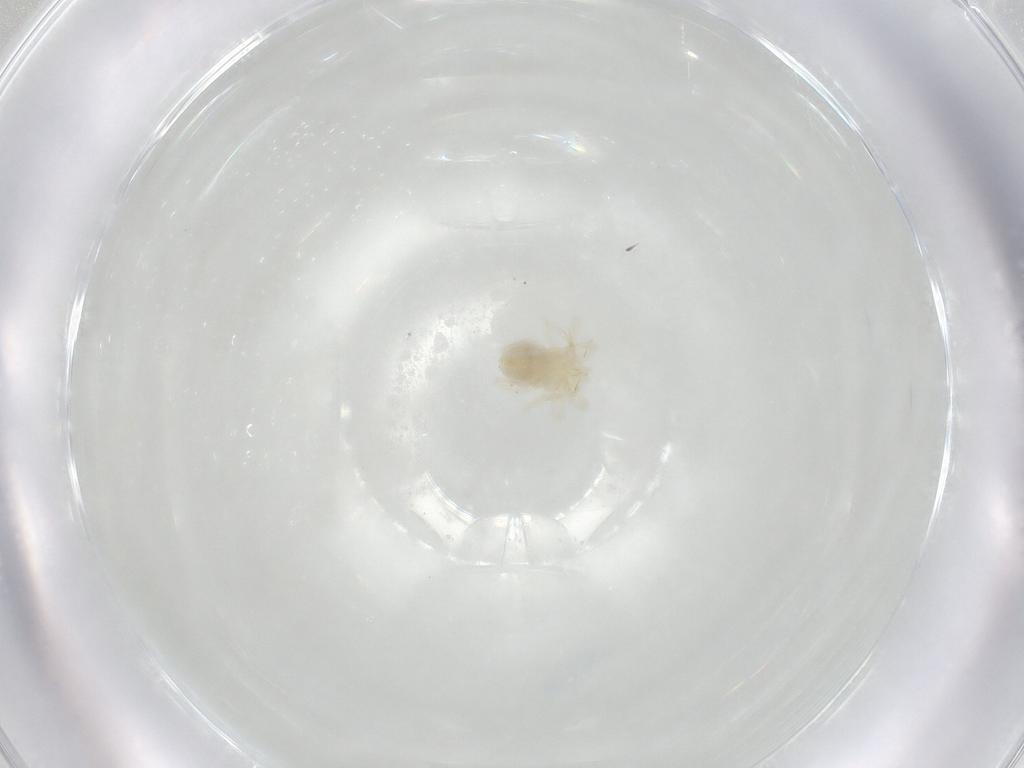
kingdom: Animalia
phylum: Arthropoda
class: Arachnida
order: Trombidiformes
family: Anystidae
